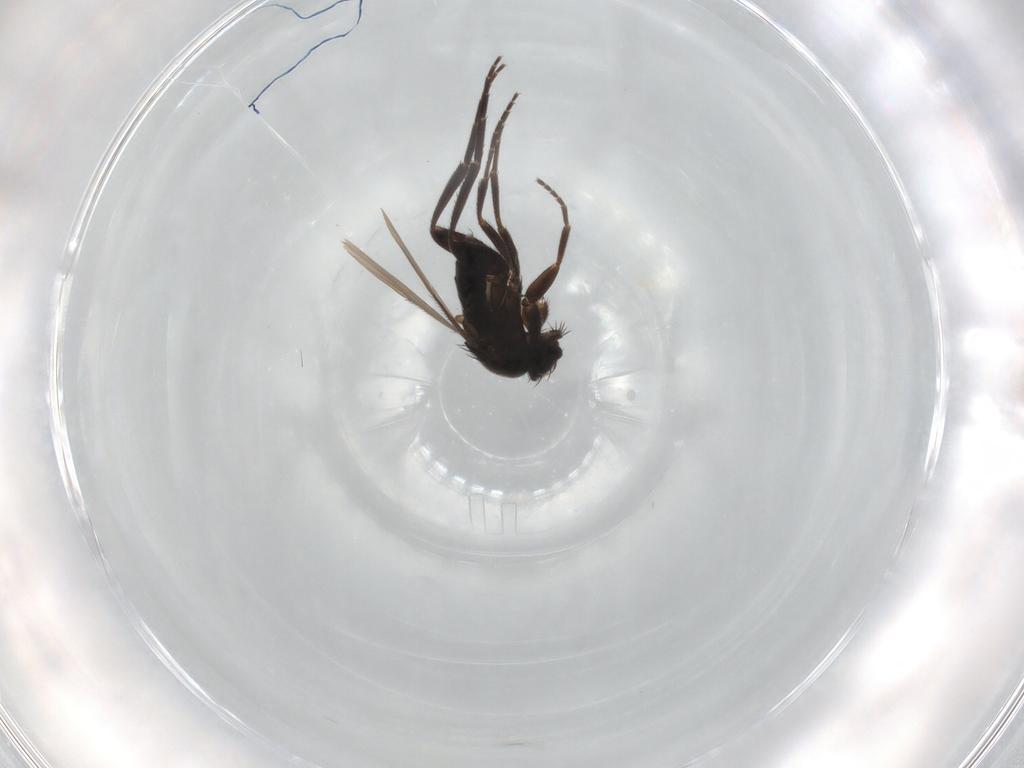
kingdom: Animalia
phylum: Arthropoda
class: Insecta
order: Diptera
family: Phoridae
